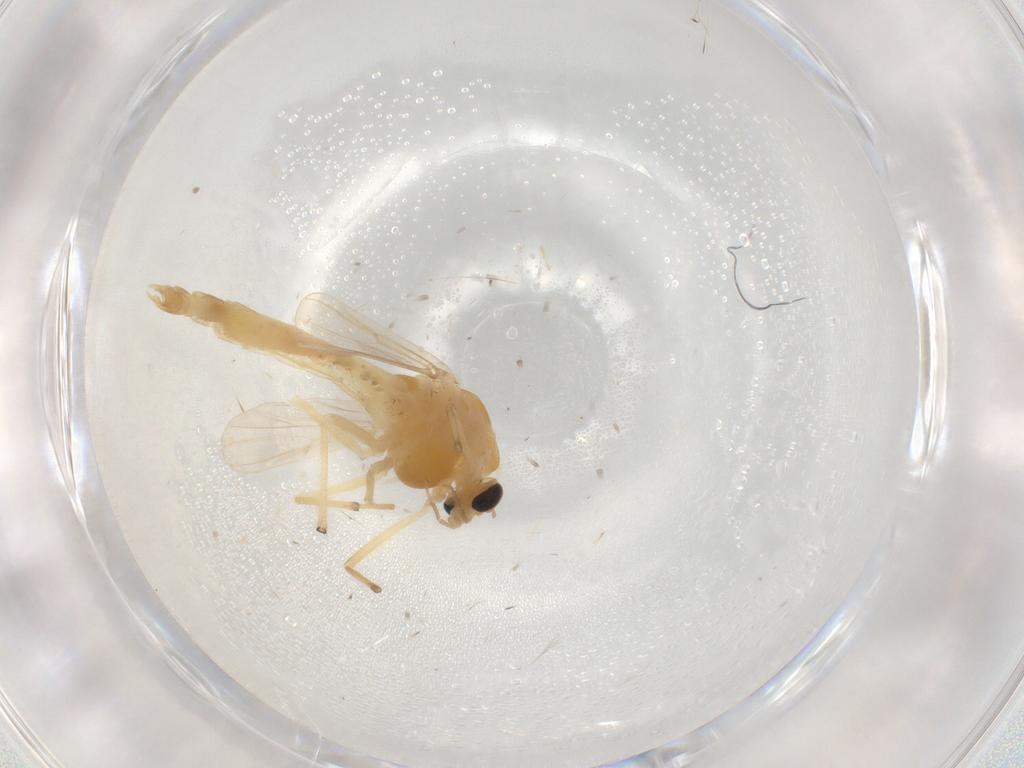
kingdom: Animalia
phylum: Arthropoda
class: Insecta
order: Diptera
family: Chironomidae
